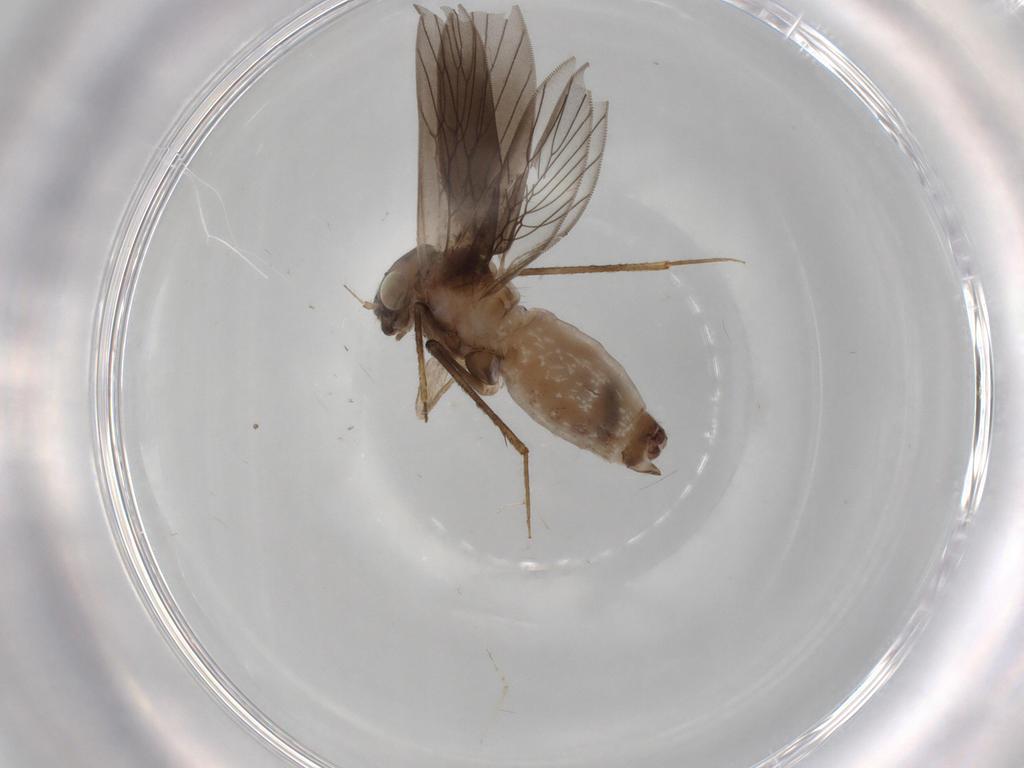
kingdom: Animalia
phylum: Arthropoda
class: Insecta
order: Psocodea
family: Lepidopsocidae
